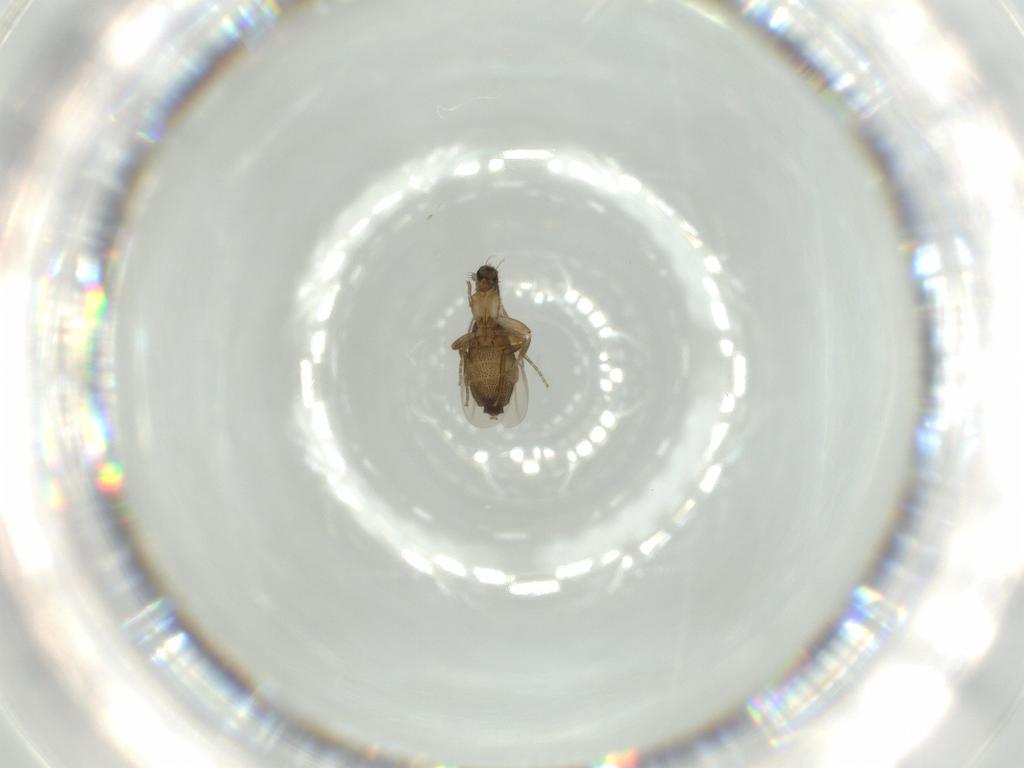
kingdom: Animalia
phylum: Arthropoda
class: Insecta
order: Diptera
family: Phoridae
